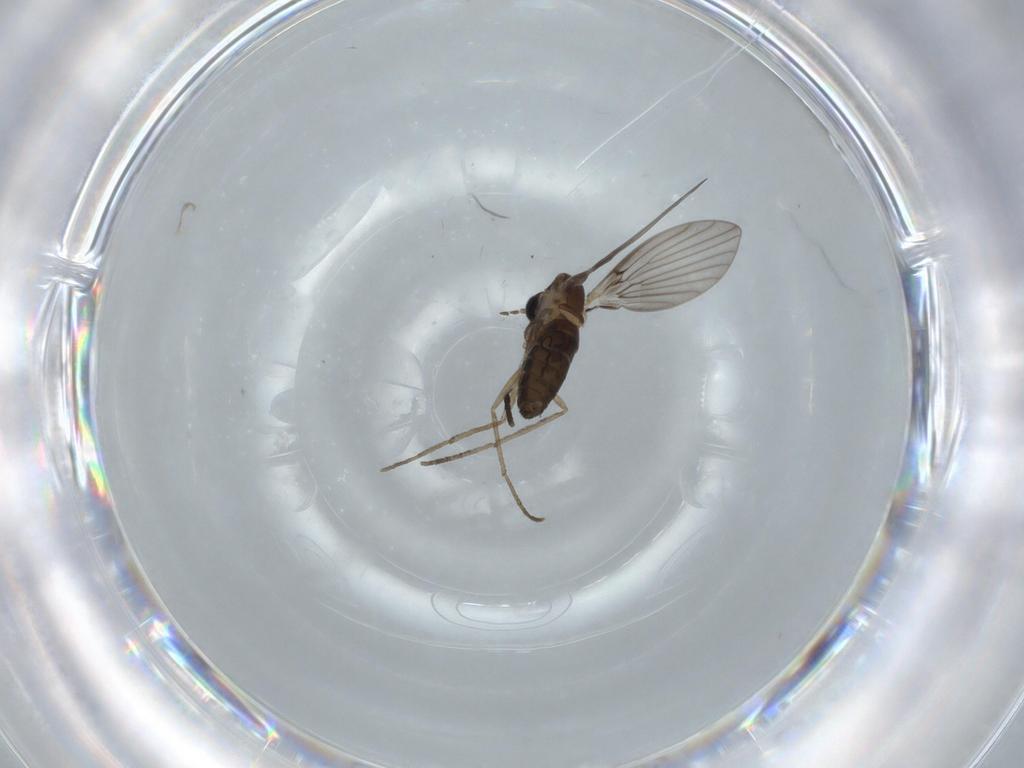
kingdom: Animalia
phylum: Arthropoda
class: Insecta
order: Diptera
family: Psychodidae
